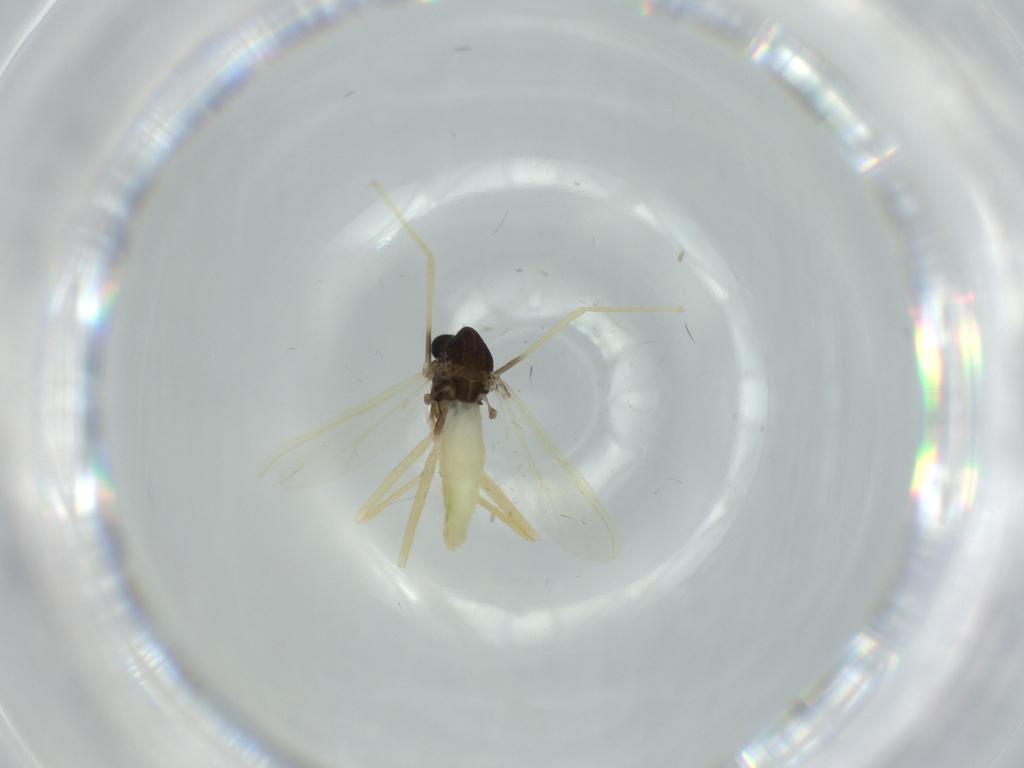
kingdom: Animalia
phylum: Arthropoda
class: Insecta
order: Diptera
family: Chironomidae
